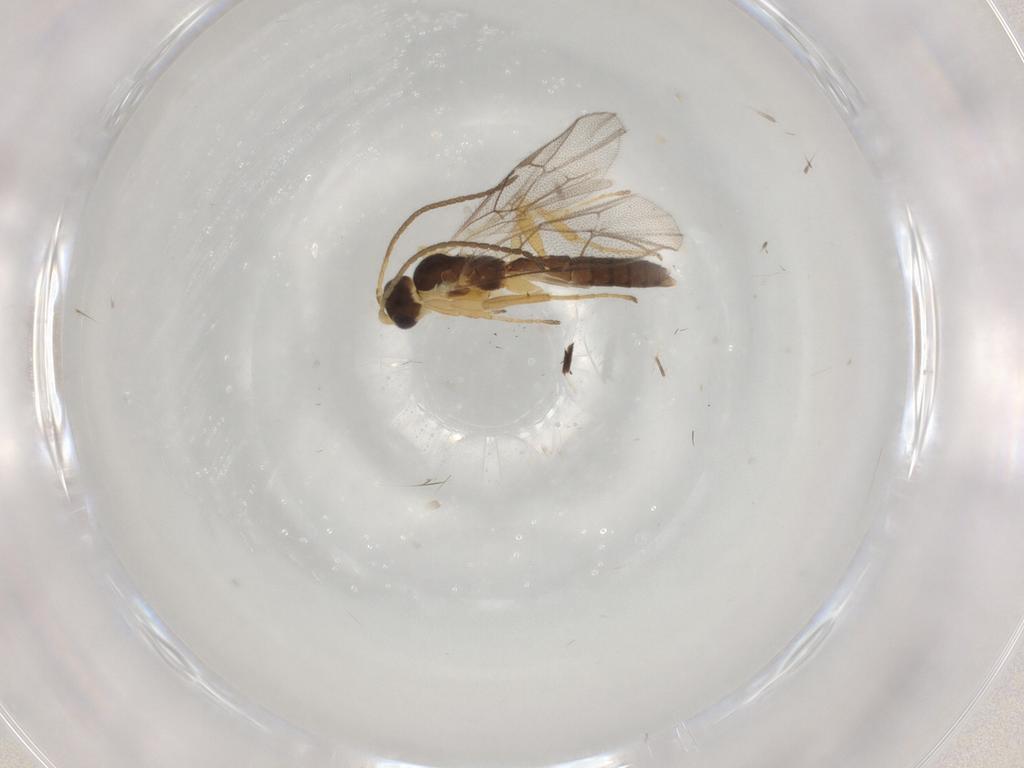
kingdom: Animalia
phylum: Arthropoda
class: Insecta
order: Hymenoptera
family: Ichneumonidae
